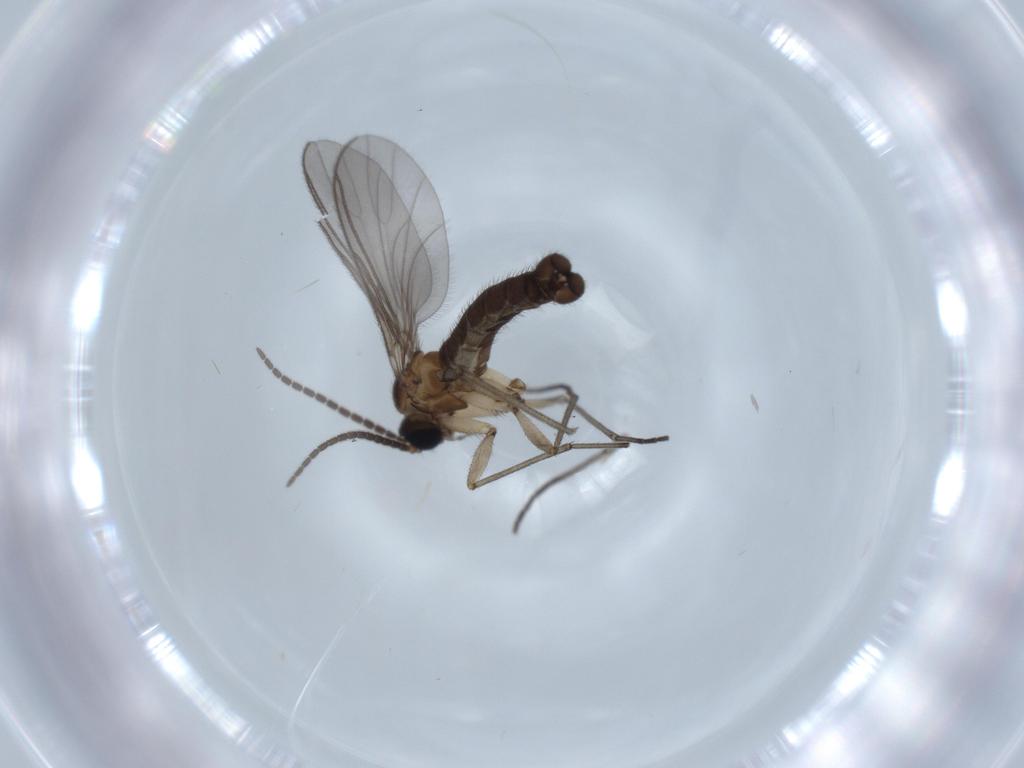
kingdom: Animalia
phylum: Arthropoda
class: Insecta
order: Diptera
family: Sciaridae
